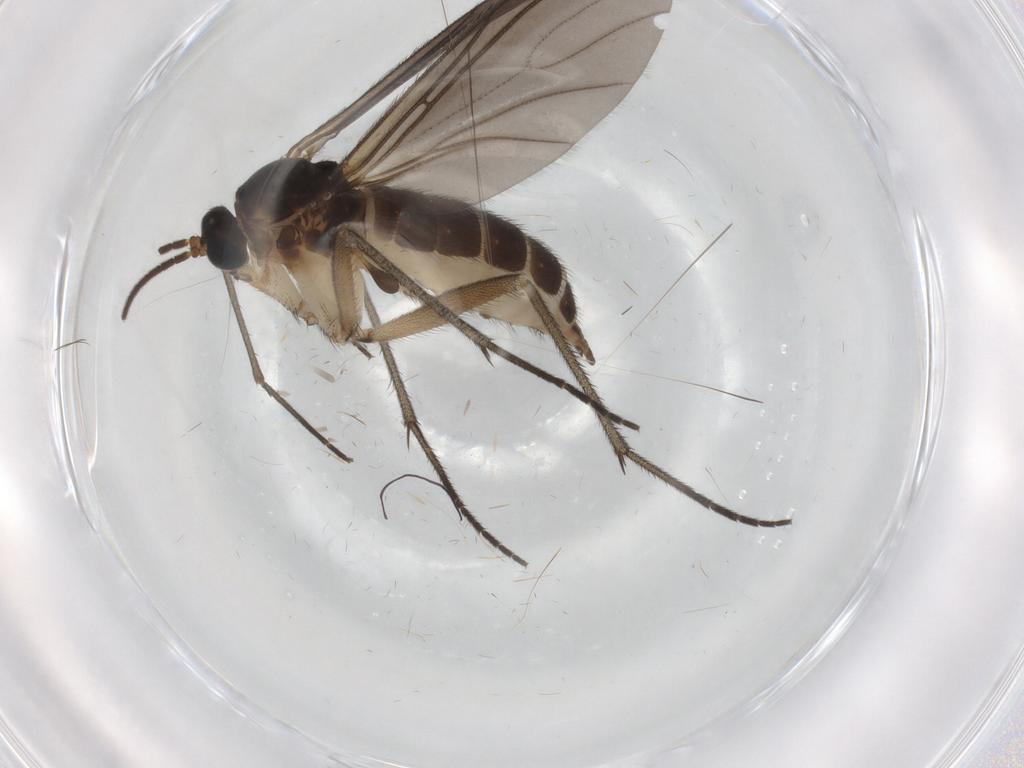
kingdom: Animalia
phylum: Arthropoda
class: Insecta
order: Diptera
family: Sciaridae
